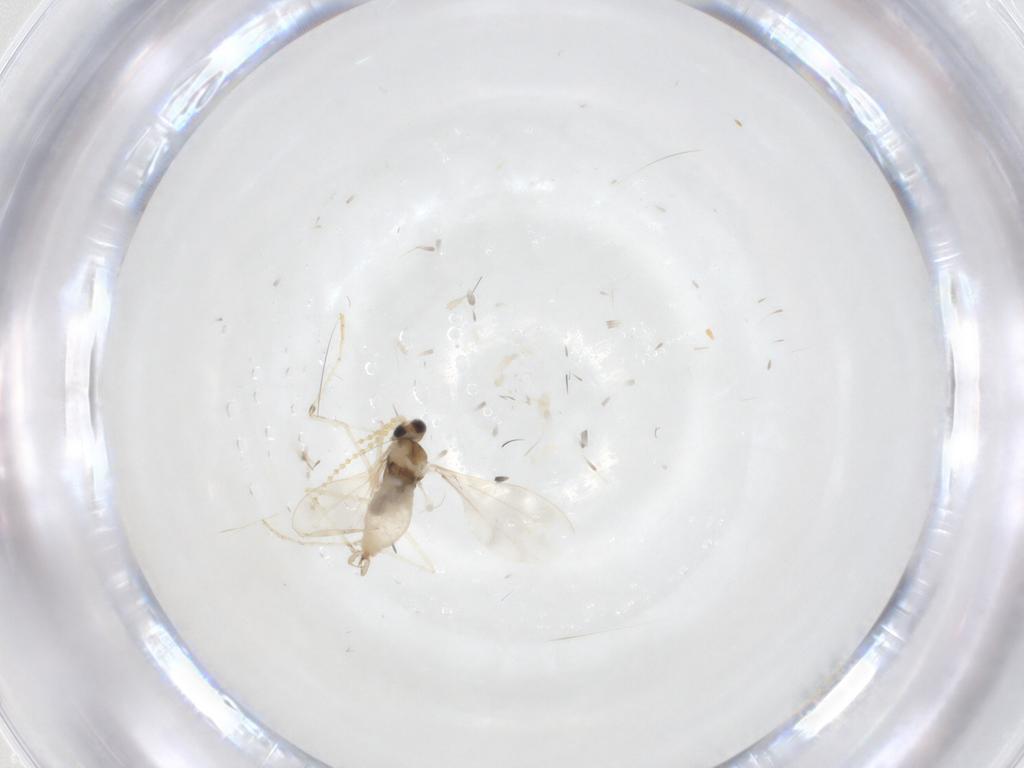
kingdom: Animalia
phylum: Arthropoda
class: Insecta
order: Diptera
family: Cecidomyiidae
